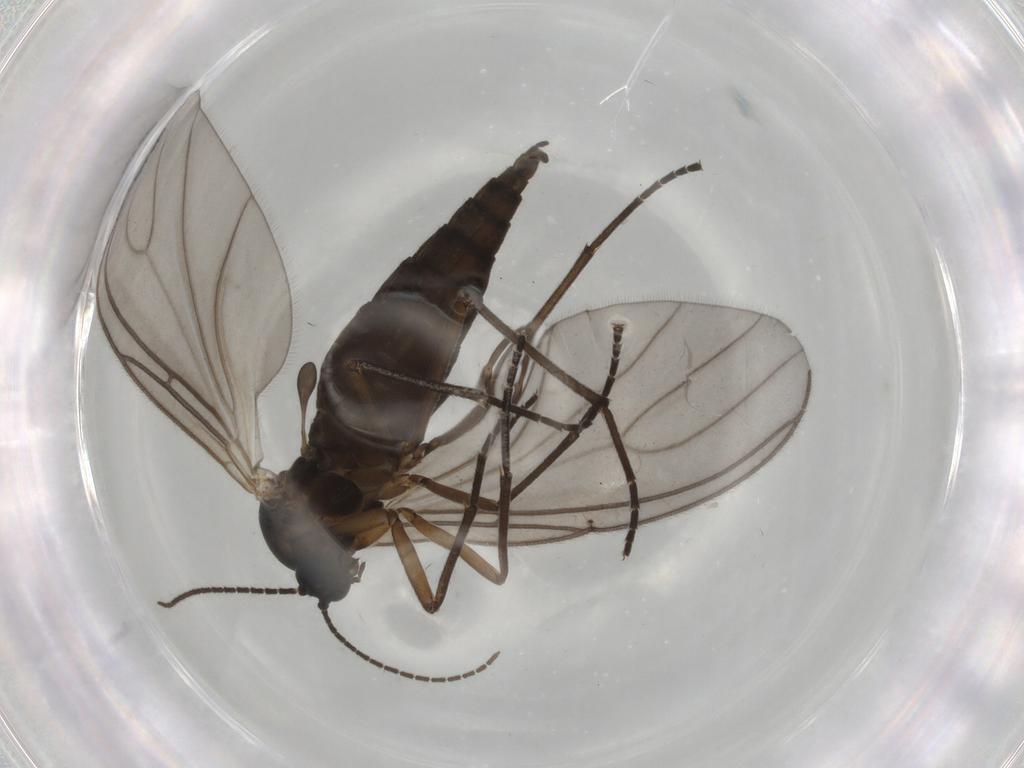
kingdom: Animalia
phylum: Arthropoda
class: Insecta
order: Diptera
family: Sciaridae
